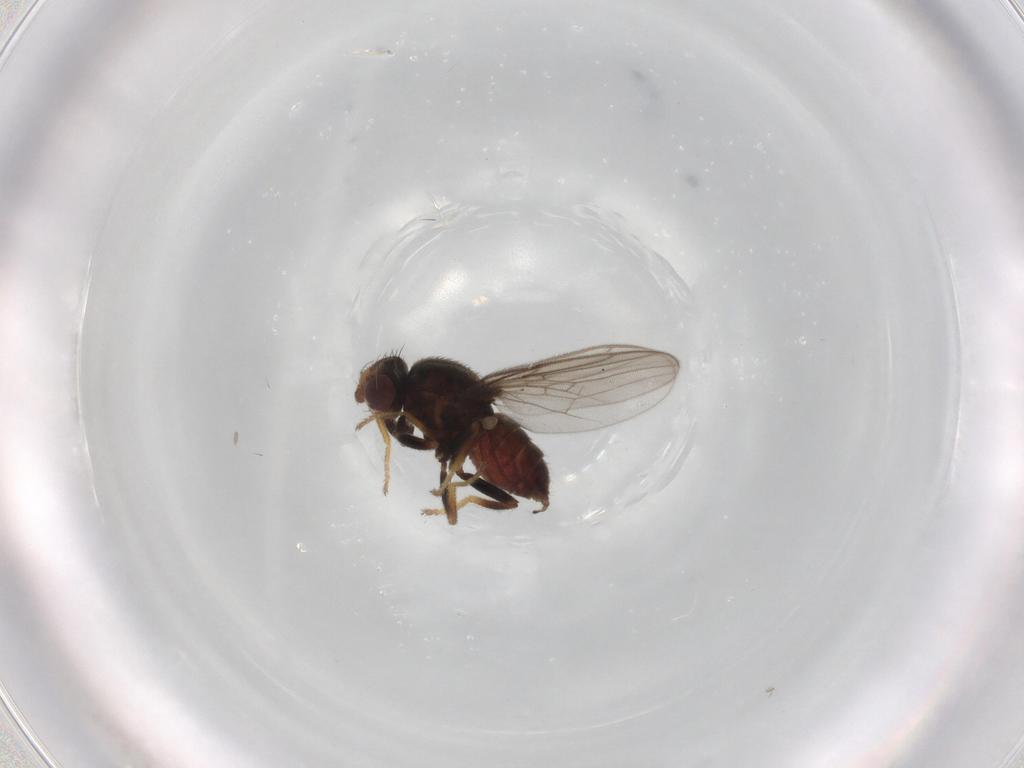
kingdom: Animalia
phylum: Arthropoda
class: Insecta
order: Diptera
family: Chloropidae
